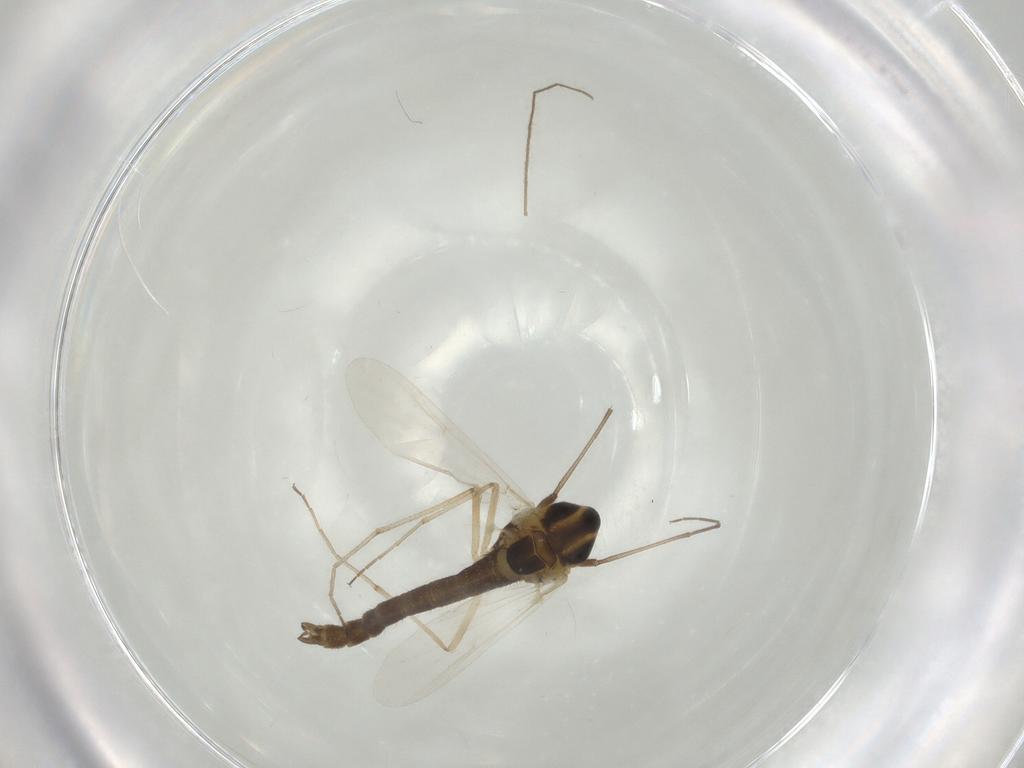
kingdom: Animalia
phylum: Arthropoda
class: Insecta
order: Diptera
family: Chironomidae
